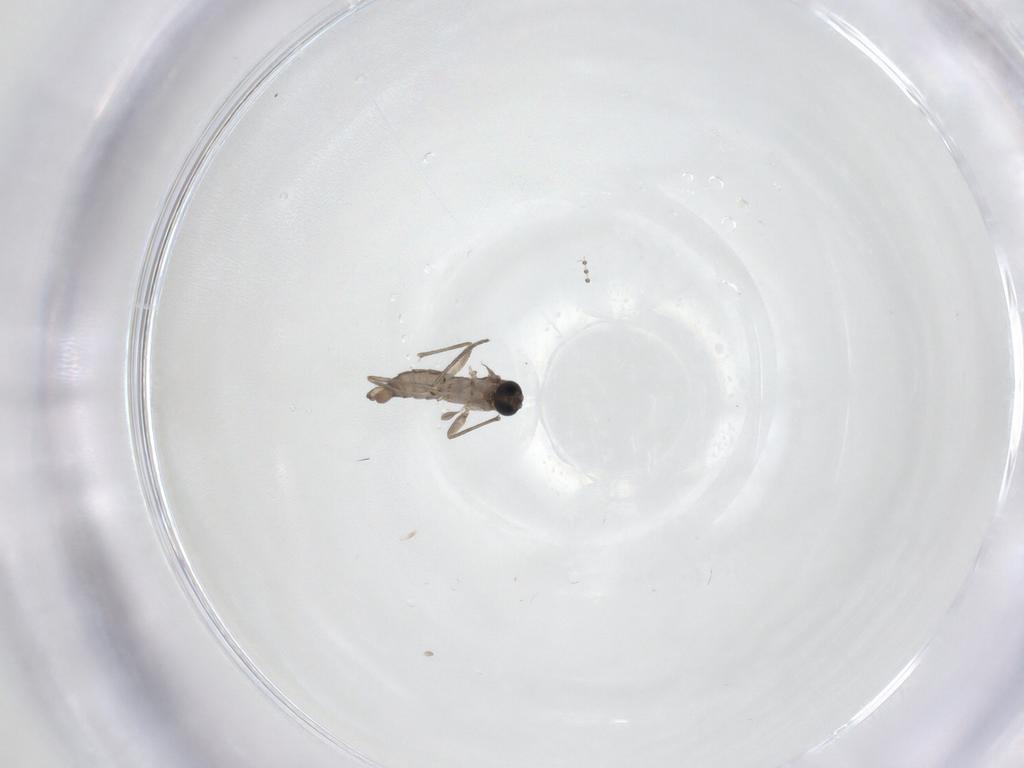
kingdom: Animalia
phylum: Arthropoda
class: Insecta
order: Diptera
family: Sciaridae
